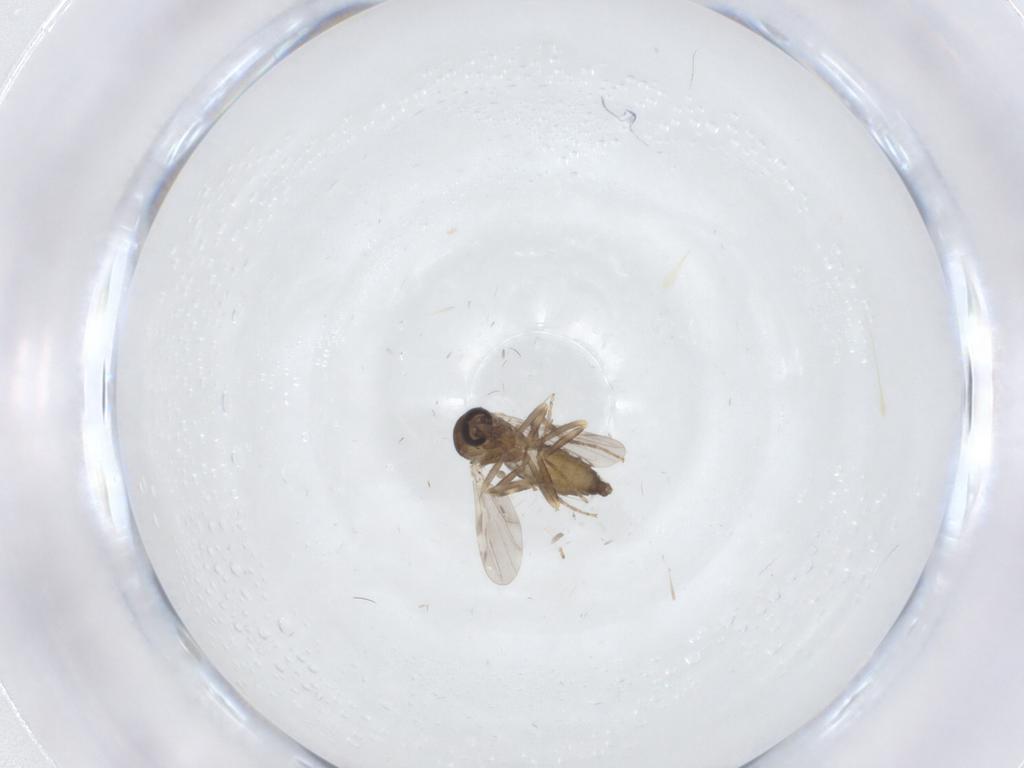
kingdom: Animalia
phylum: Arthropoda
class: Insecta
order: Diptera
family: Ceratopogonidae
